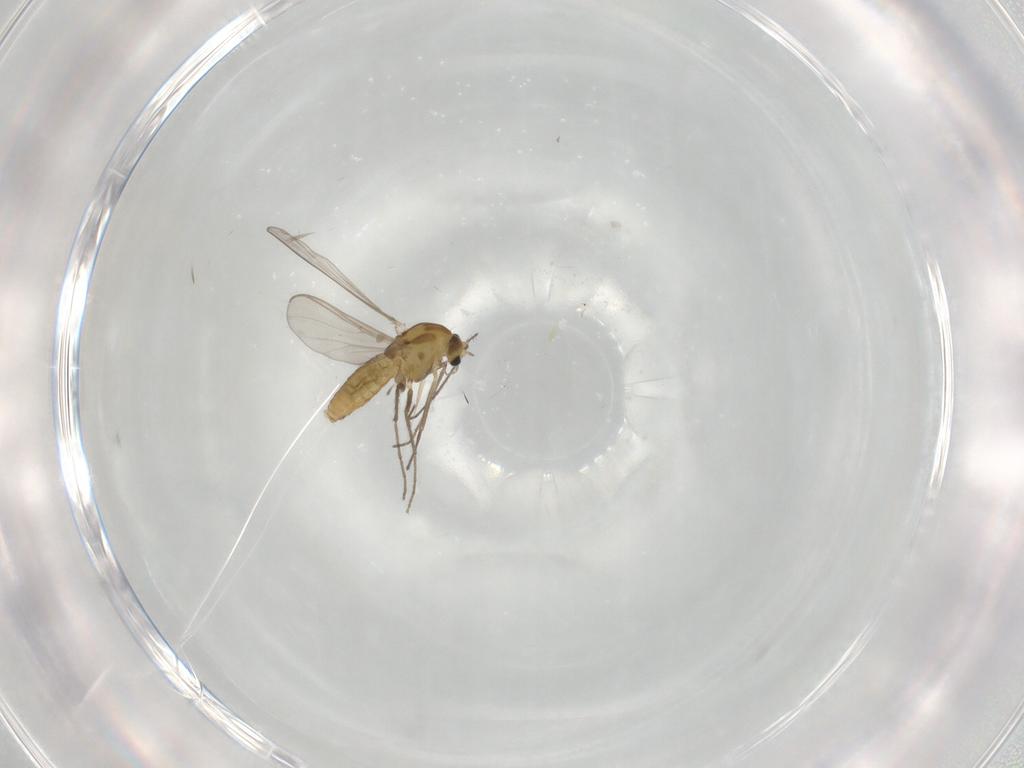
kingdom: Animalia
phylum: Arthropoda
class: Insecta
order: Diptera
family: Chironomidae
